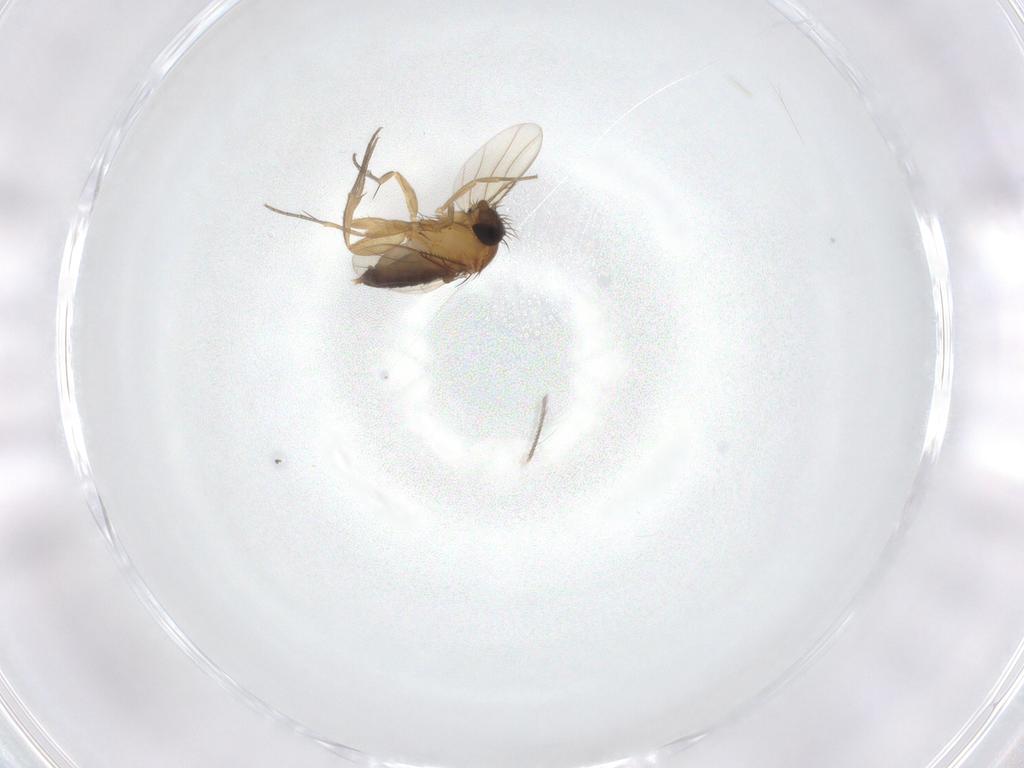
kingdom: Animalia
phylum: Arthropoda
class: Insecta
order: Diptera
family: Phoridae
